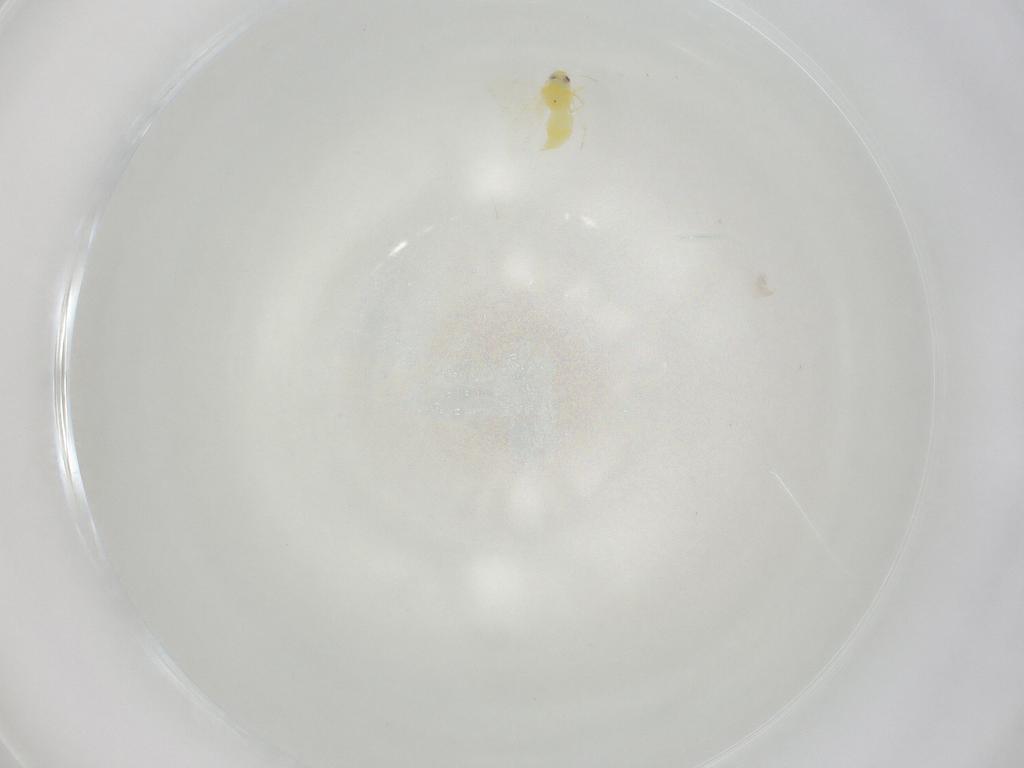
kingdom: Animalia
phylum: Arthropoda
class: Insecta
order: Hemiptera
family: Aleyrodidae
